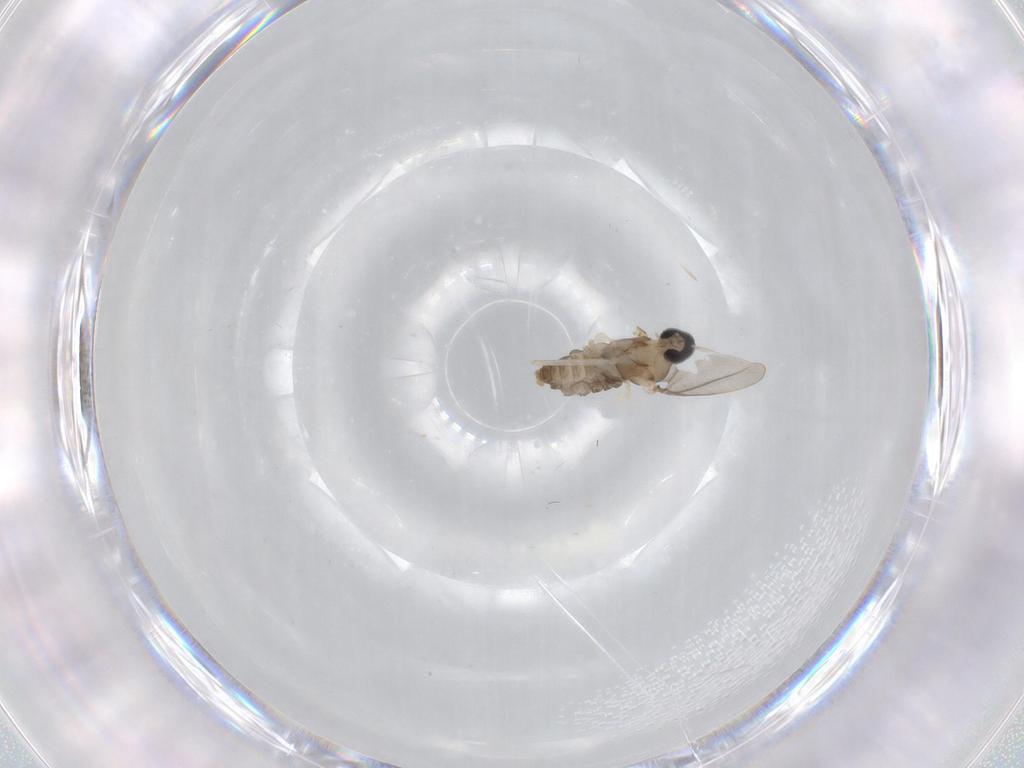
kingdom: Animalia
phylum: Arthropoda
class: Insecta
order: Diptera
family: Cecidomyiidae
